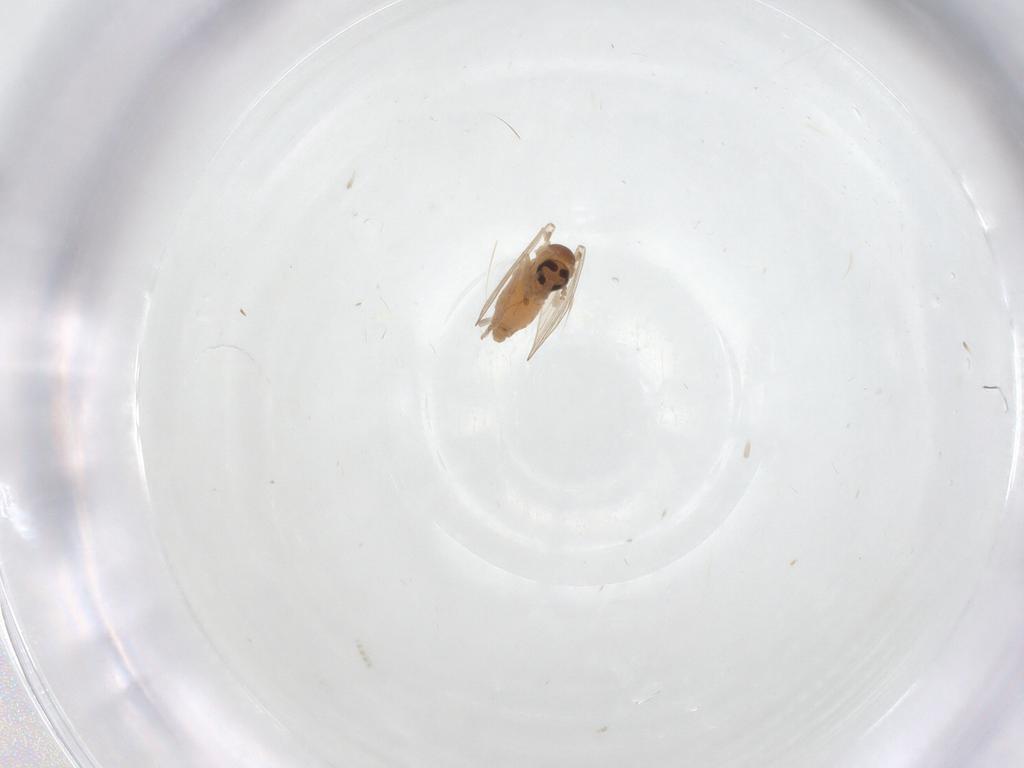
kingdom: Animalia
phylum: Arthropoda
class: Insecta
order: Diptera
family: Psychodidae
